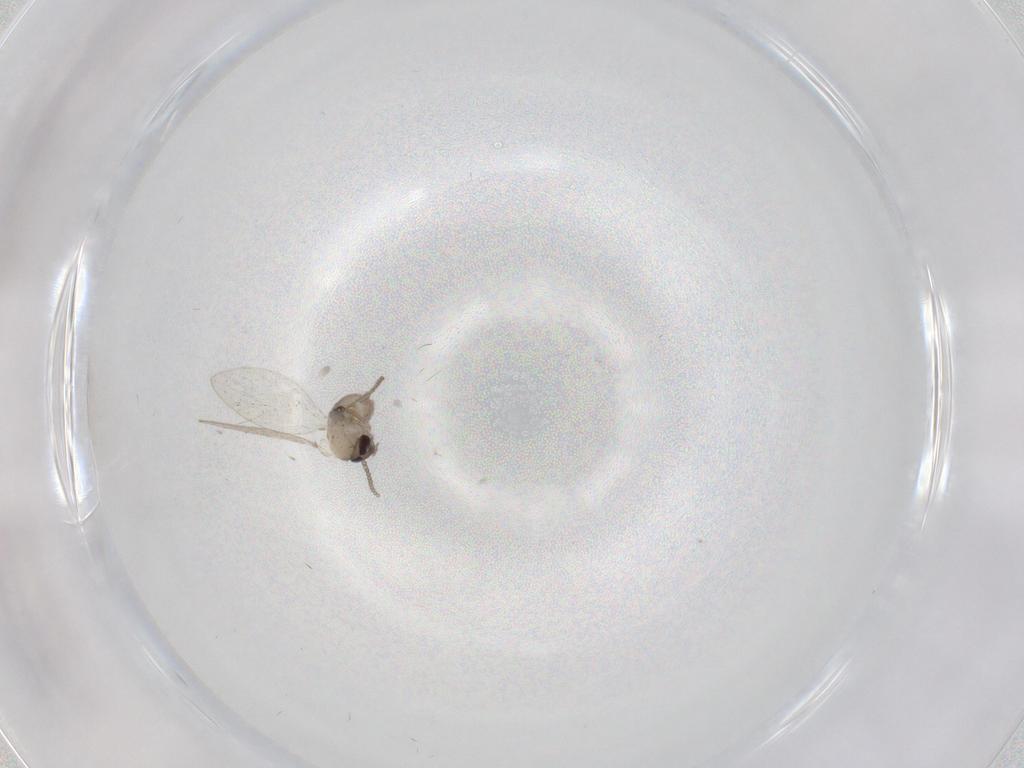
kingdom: Animalia
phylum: Arthropoda
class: Insecta
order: Diptera
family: Psychodidae
